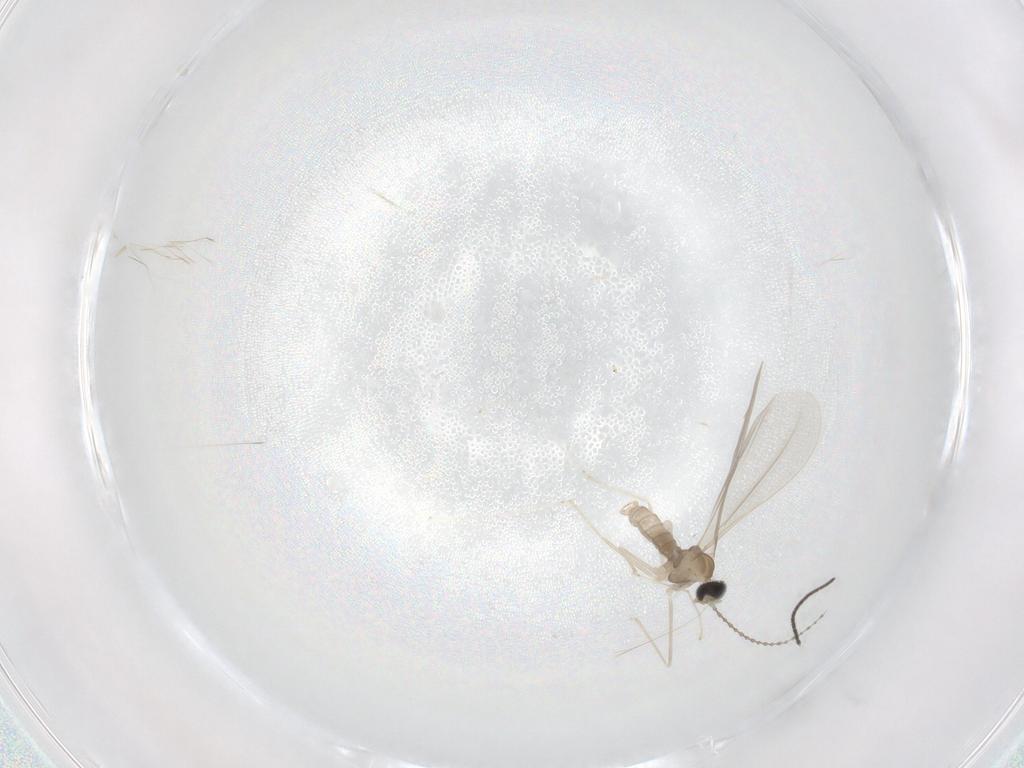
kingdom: Animalia
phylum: Arthropoda
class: Insecta
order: Diptera
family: Cecidomyiidae
